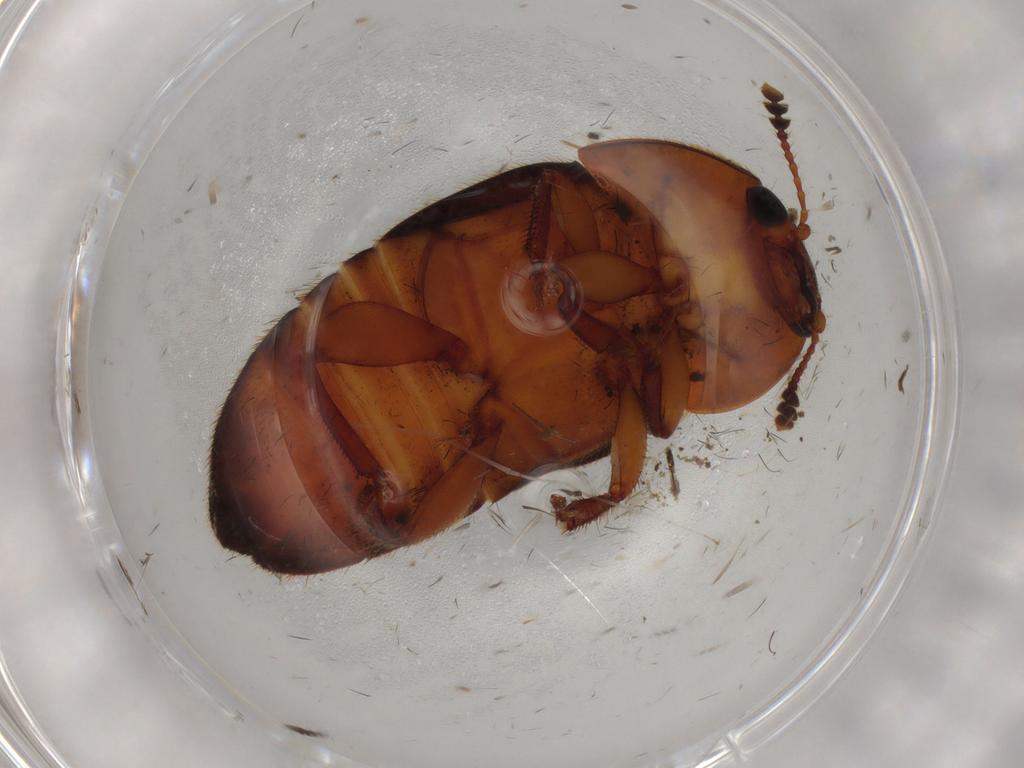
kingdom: Animalia
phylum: Arthropoda
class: Insecta
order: Coleoptera
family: Nitidulidae
